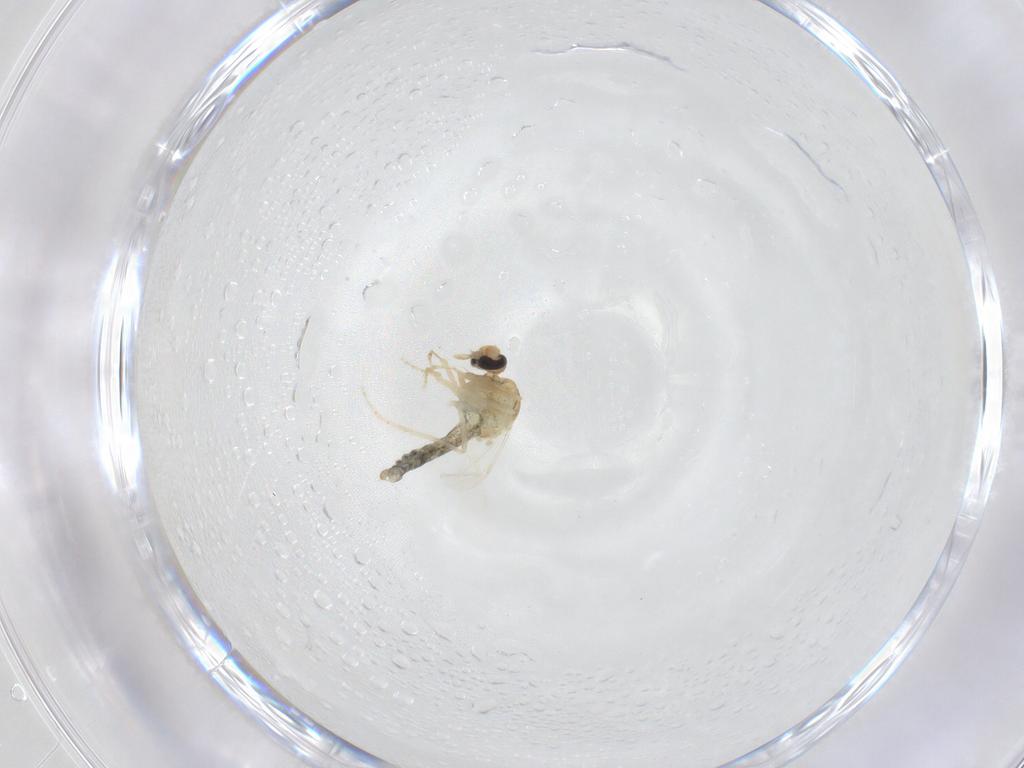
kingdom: Animalia
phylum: Arthropoda
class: Insecta
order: Diptera
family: Ceratopogonidae
